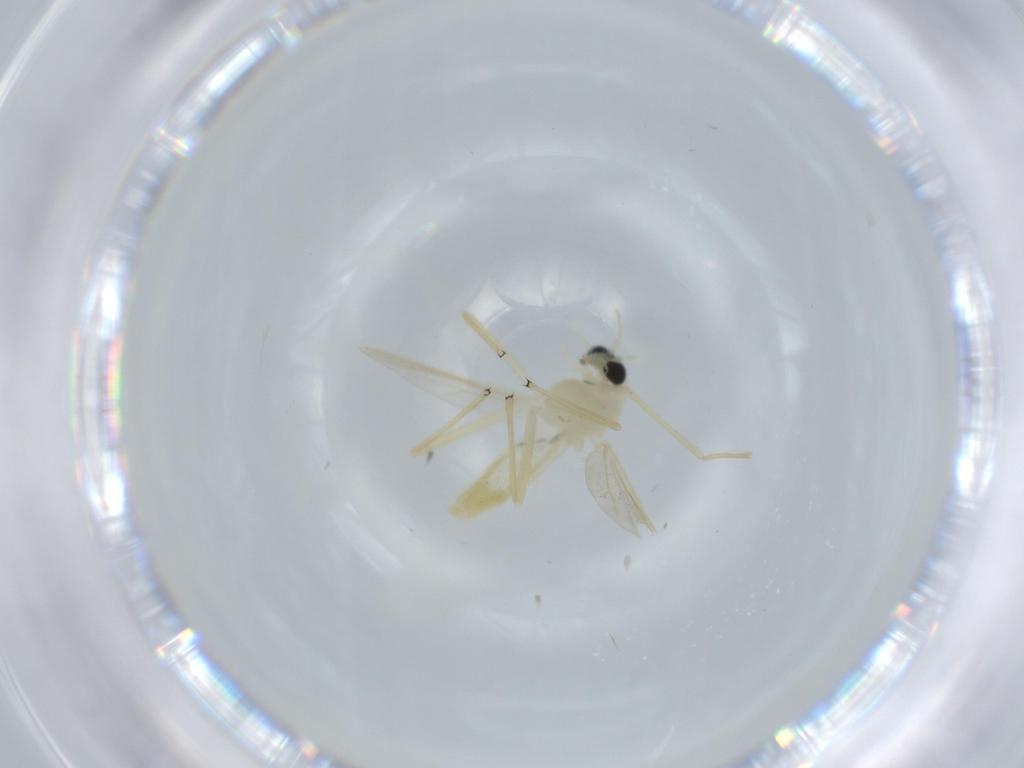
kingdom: Animalia
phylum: Arthropoda
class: Insecta
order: Diptera
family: Chironomidae
